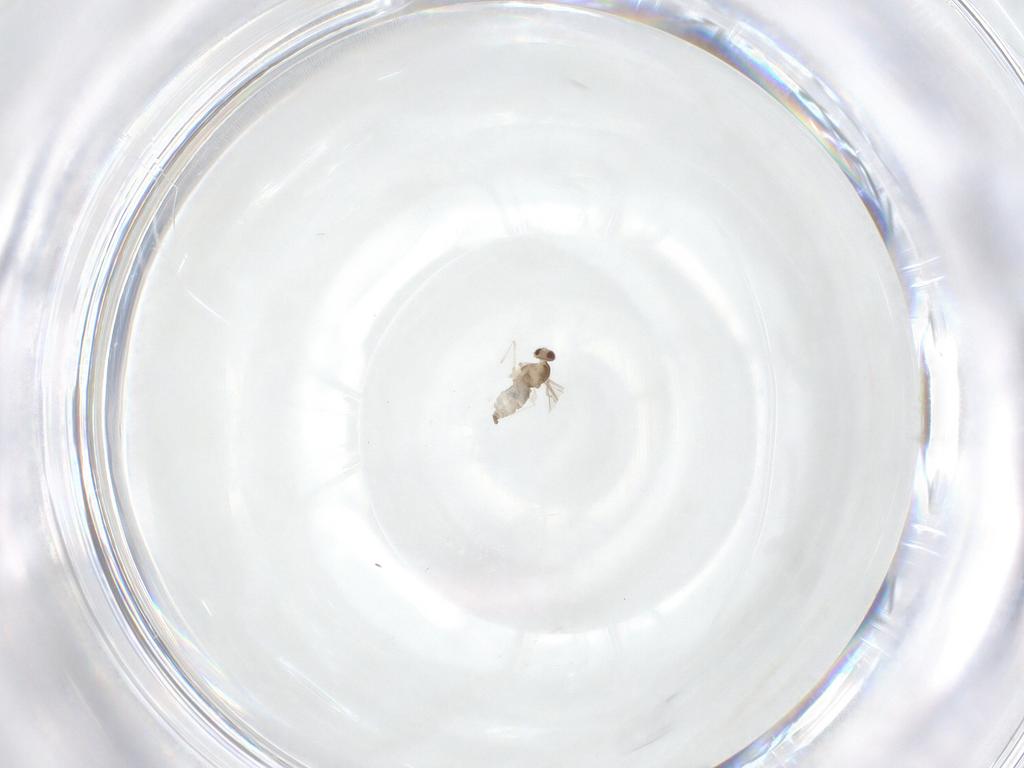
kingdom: Animalia
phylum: Arthropoda
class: Insecta
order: Diptera
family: Cecidomyiidae
